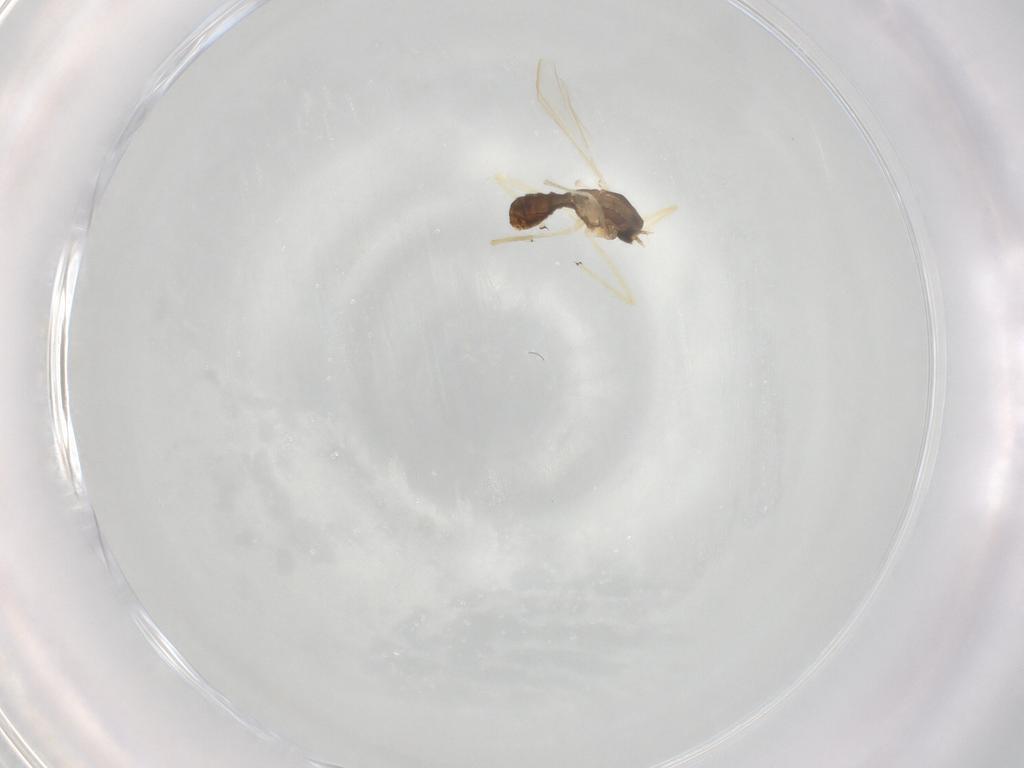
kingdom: Animalia
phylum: Arthropoda
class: Insecta
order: Diptera
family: Chironomidae
